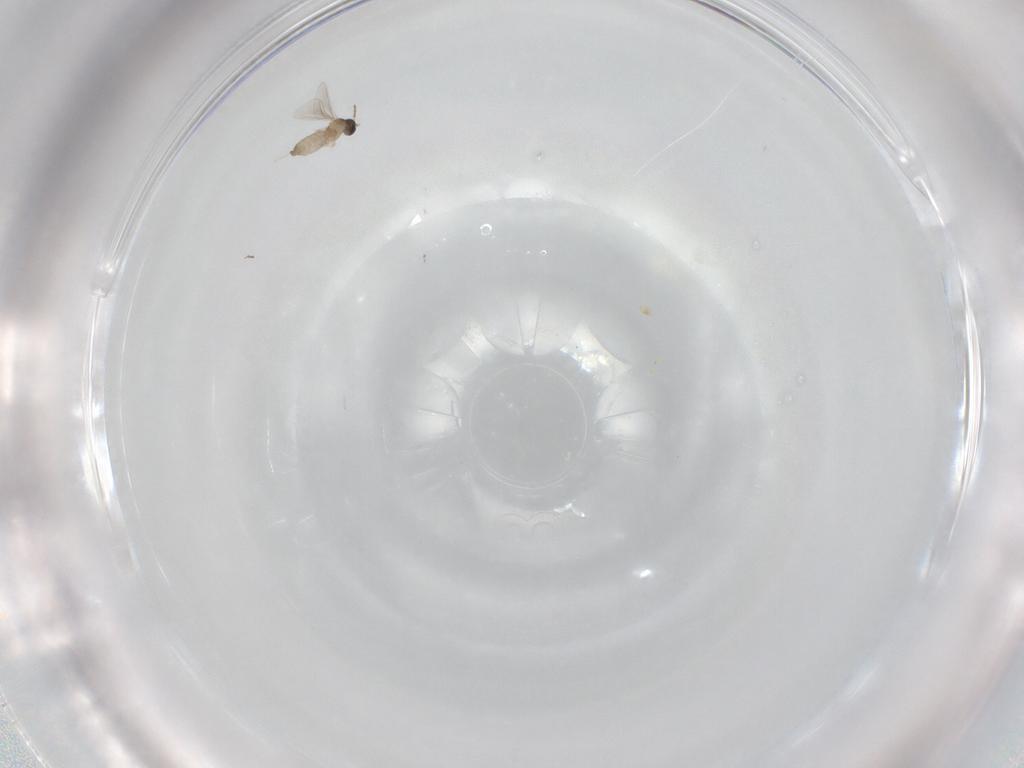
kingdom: Animalia
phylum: Arthropoda
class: Insecta
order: Diptera
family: Cecidomyiidae
